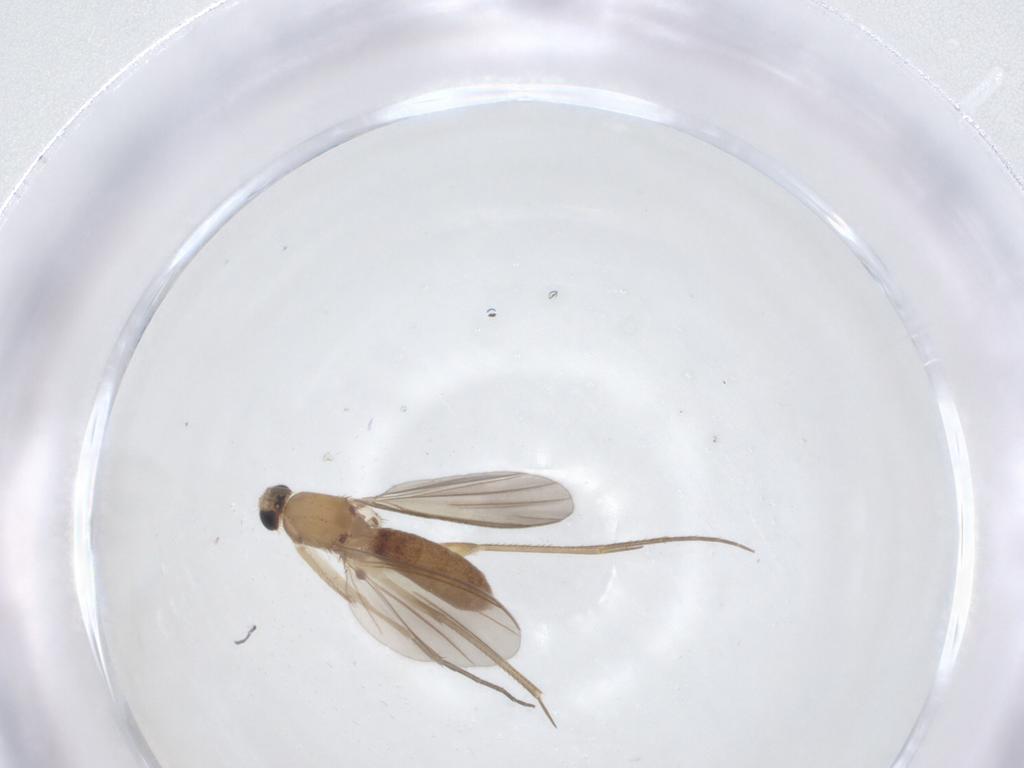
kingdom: Animalia
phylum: Arthropoda
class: Insecta
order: Diptera
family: Mycetophilidae
